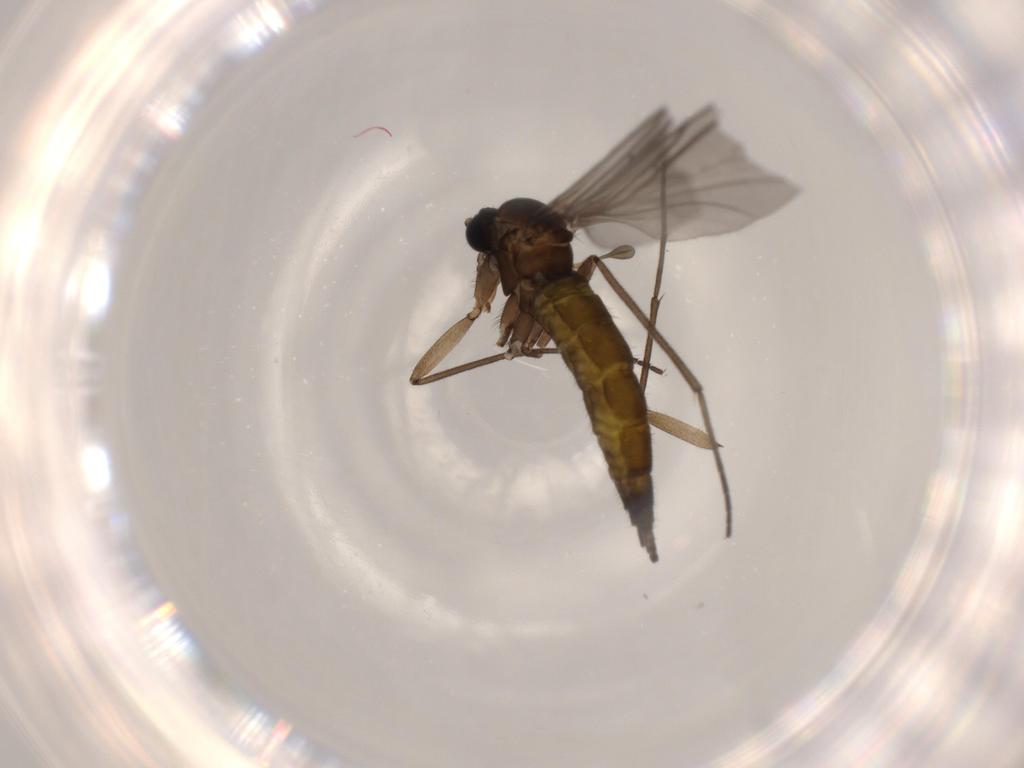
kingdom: Animalia
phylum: Arthropoda
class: Insecta
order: Diptera
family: Sciaridae
